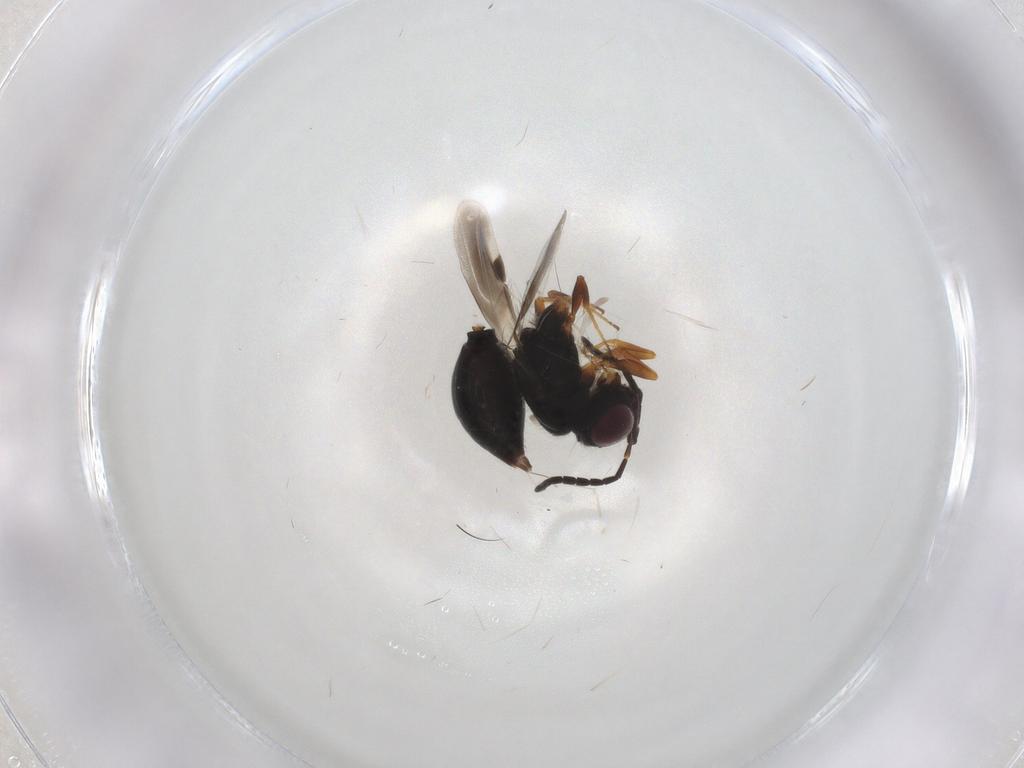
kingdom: Animalia
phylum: Arthropoda
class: Insecta
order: Hymenoptera
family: Megaspilidae
